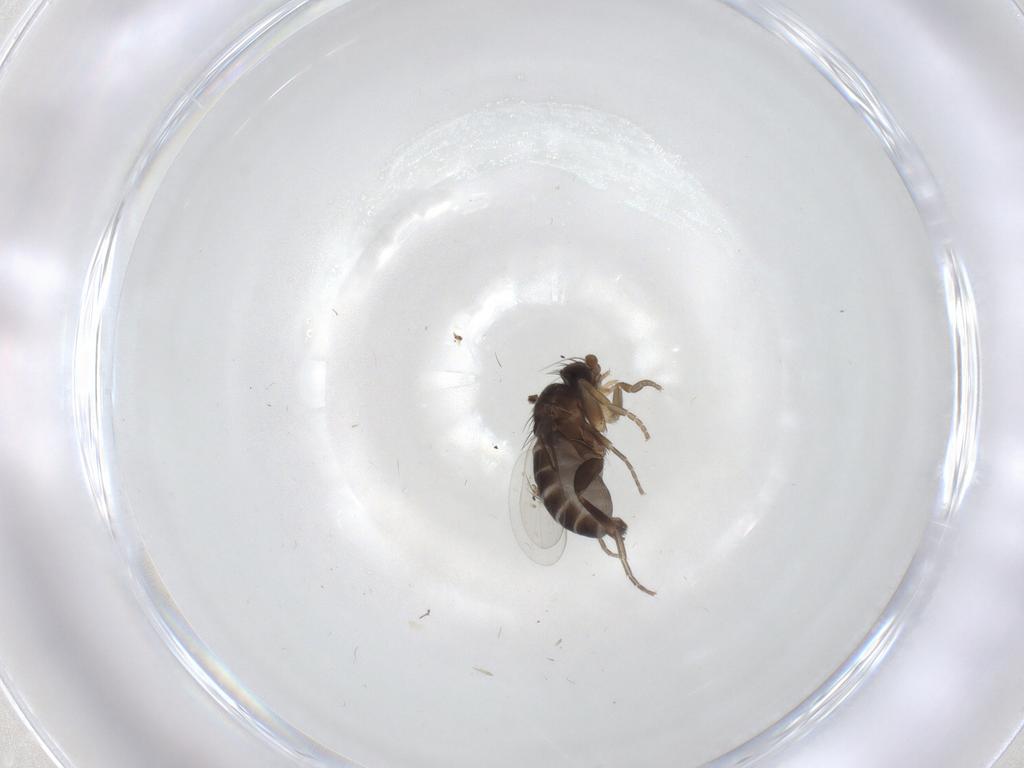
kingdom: Animalia
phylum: Arthropoda
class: Insecta
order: Diptera
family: Phoridae
